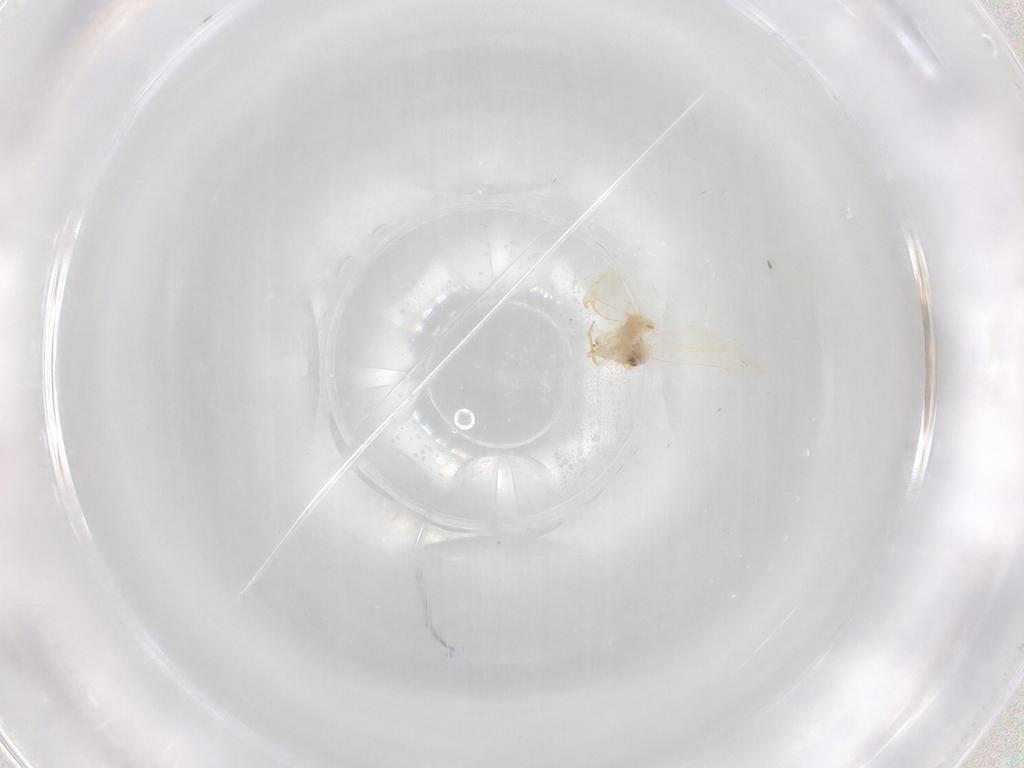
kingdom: Animalia
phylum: Arthropoda
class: Insecta
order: Hemiptera
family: Aleyrodidae
